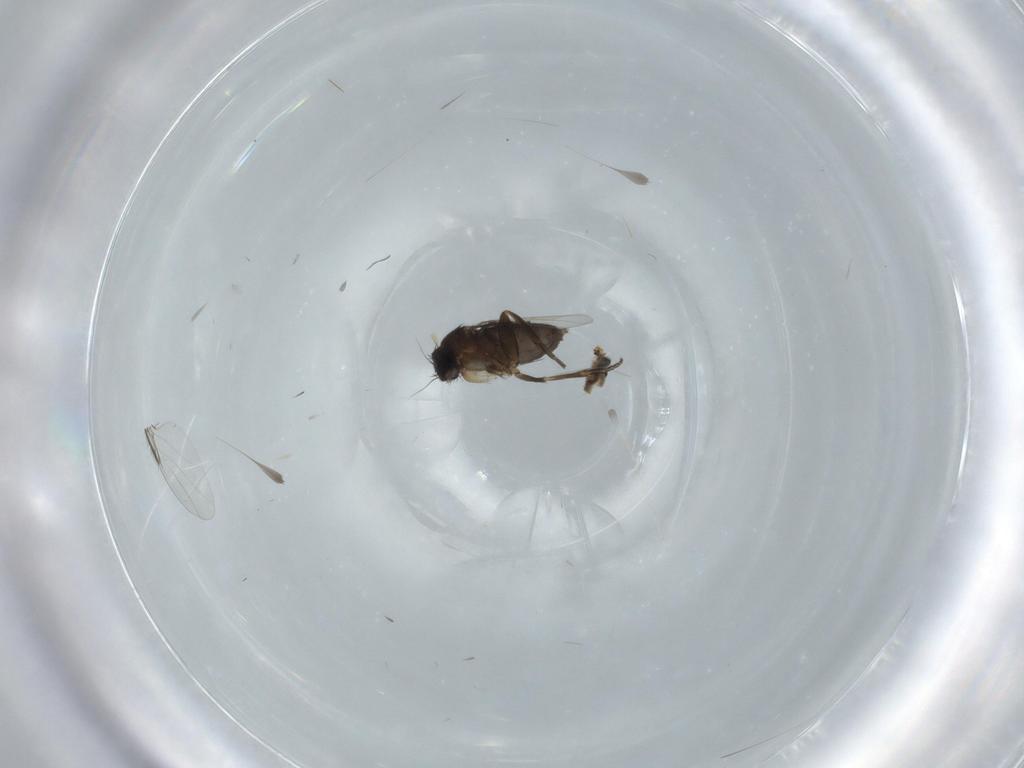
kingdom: Animalia
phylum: Arthropoda
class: Insecta
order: Diptera
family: Phoridae
